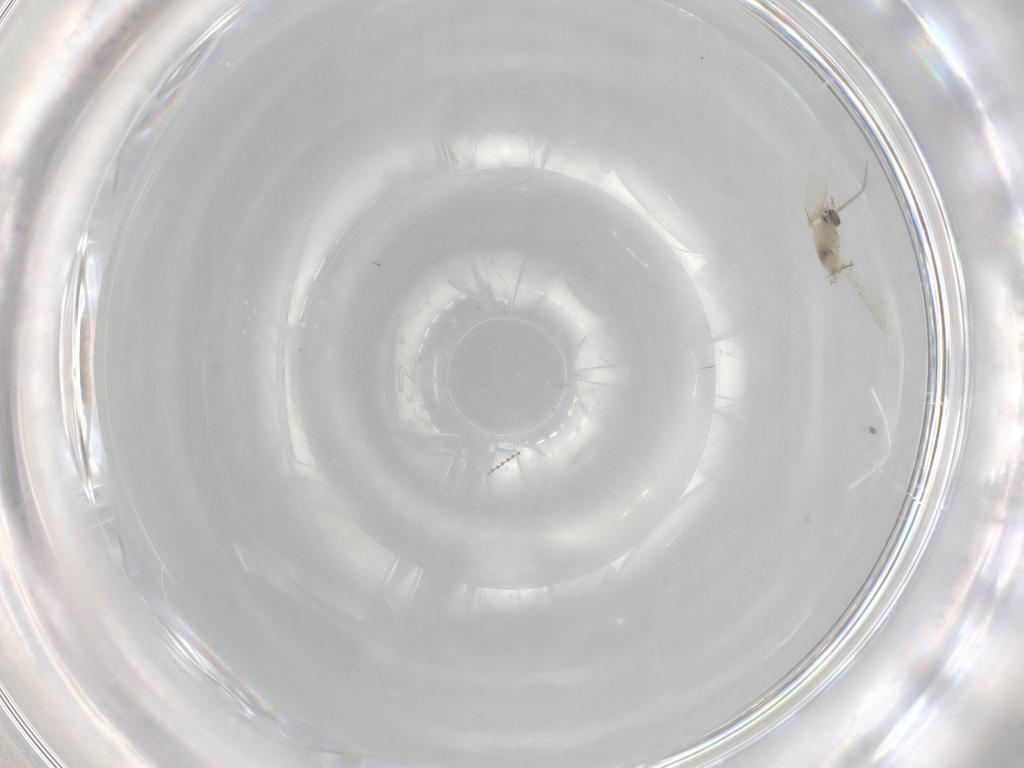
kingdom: Animalia
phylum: Arthropoda
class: Insecta
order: Diptera
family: Cecidomyiidae
